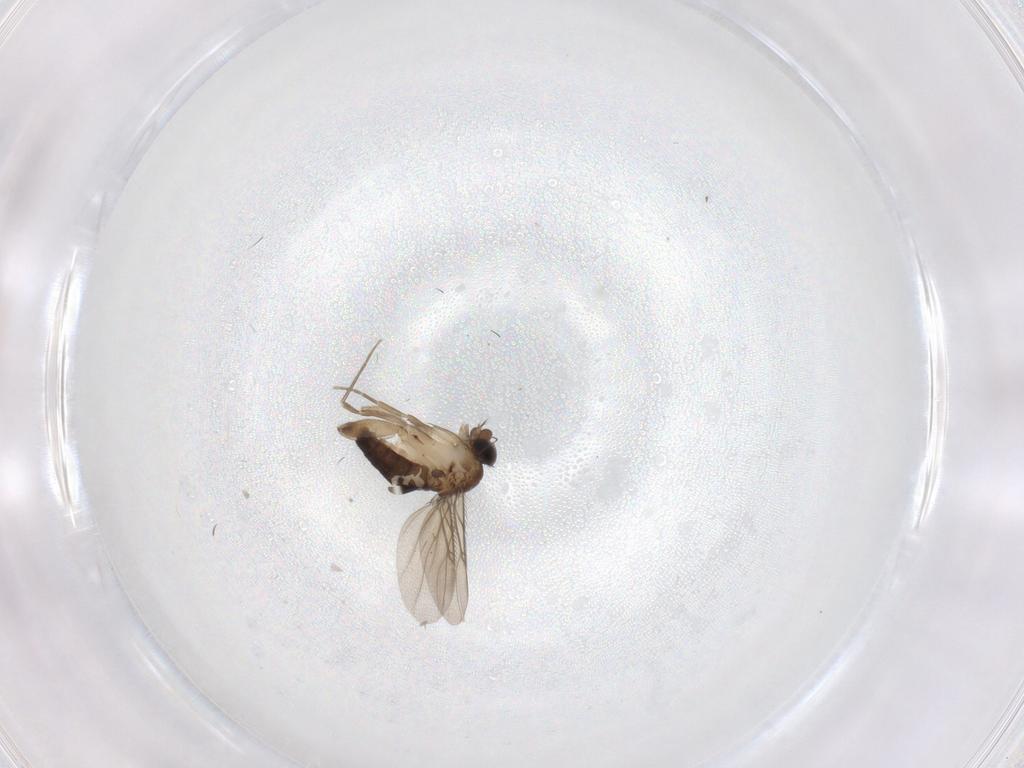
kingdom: Animalia
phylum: Arthropoda
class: Insecta
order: Diptera
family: Phoridae
